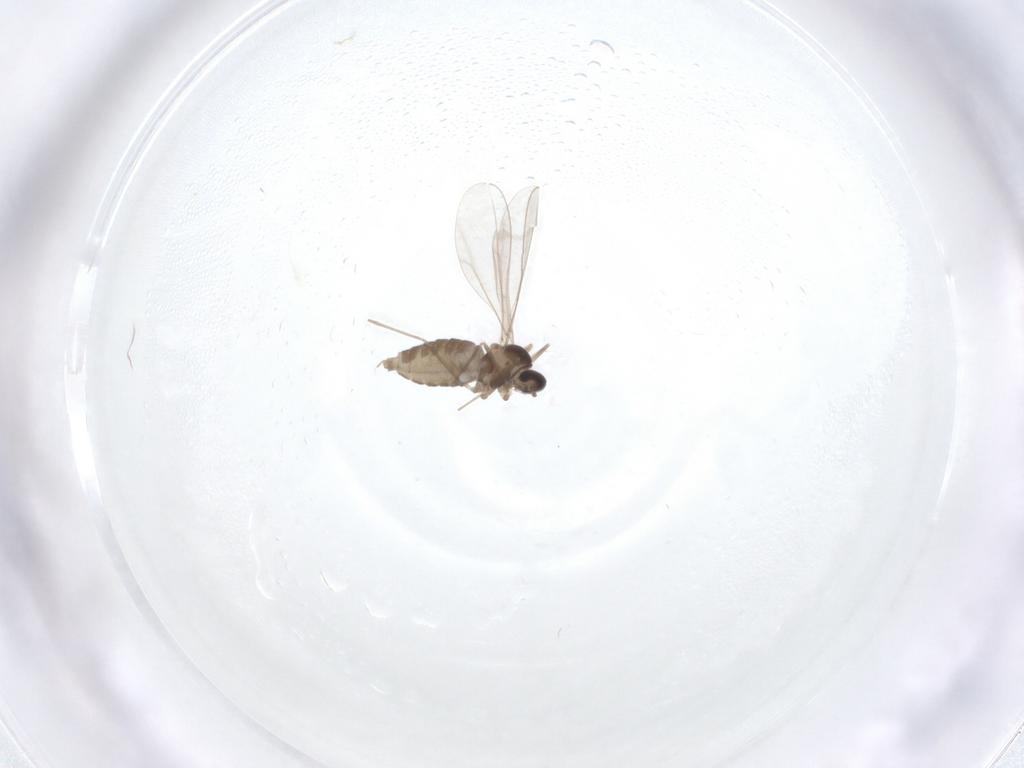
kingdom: Animalia
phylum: Arthropoda
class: Insecta
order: Diptera
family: Cecidomyiidae
